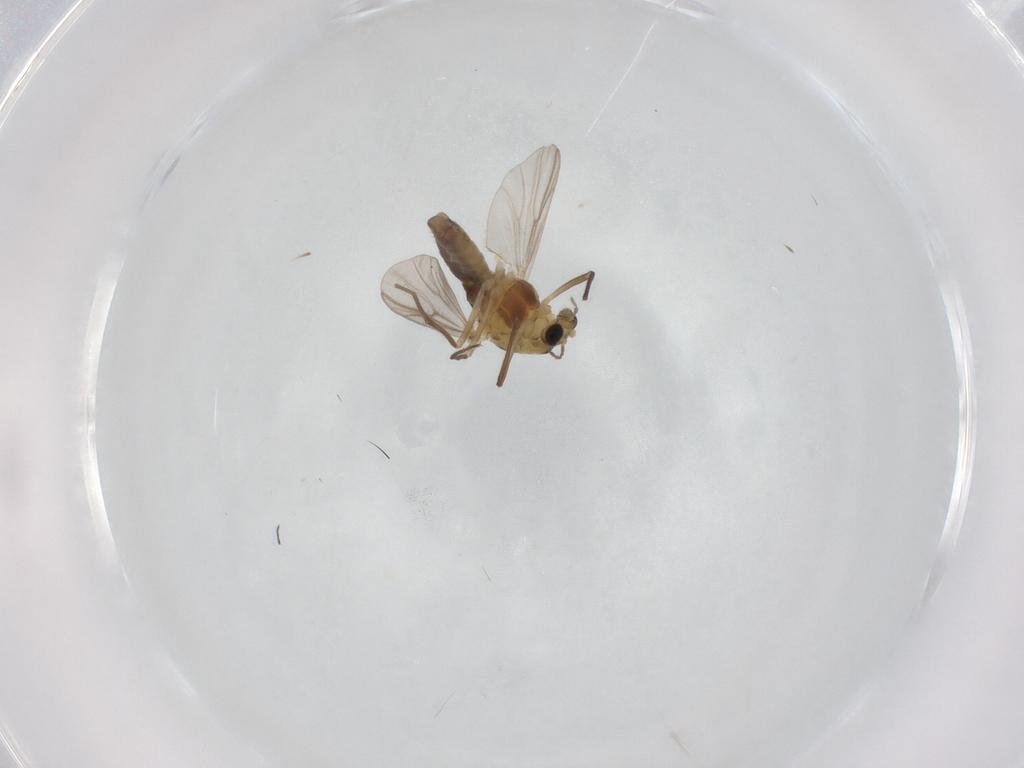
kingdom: Animalia
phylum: Arthropoda
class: Insecta
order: Diptera
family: Chironomidae
